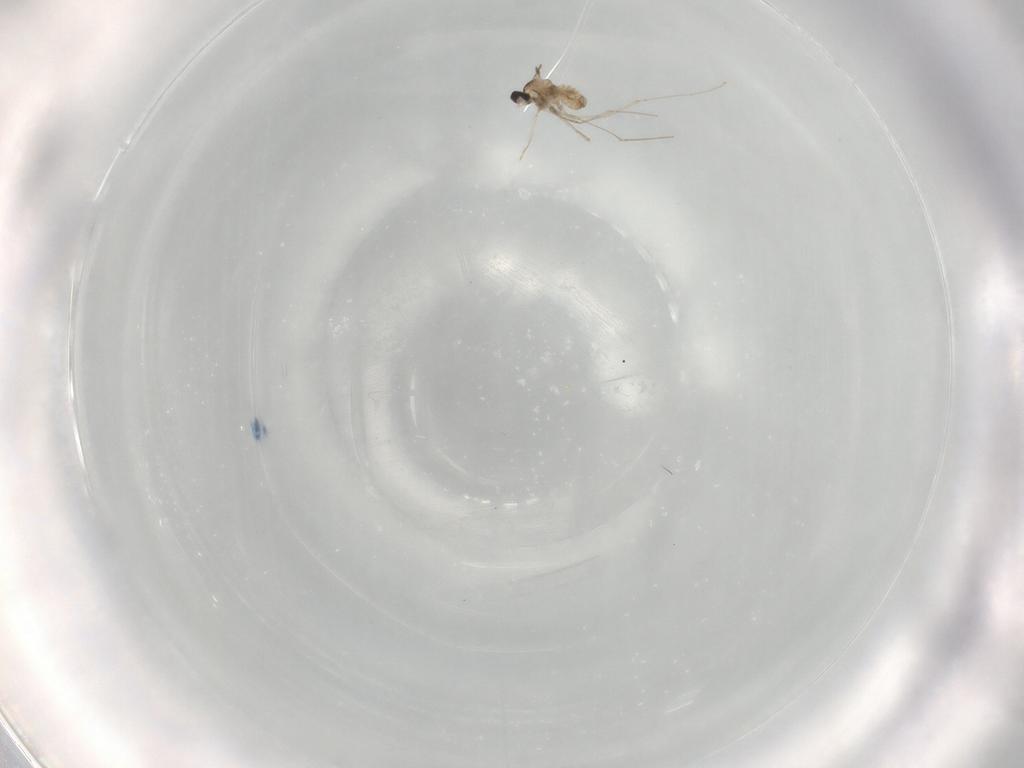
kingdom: Animalia
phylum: Arthropoda
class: Insecta
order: Diptera
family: Cecidomyiidae
